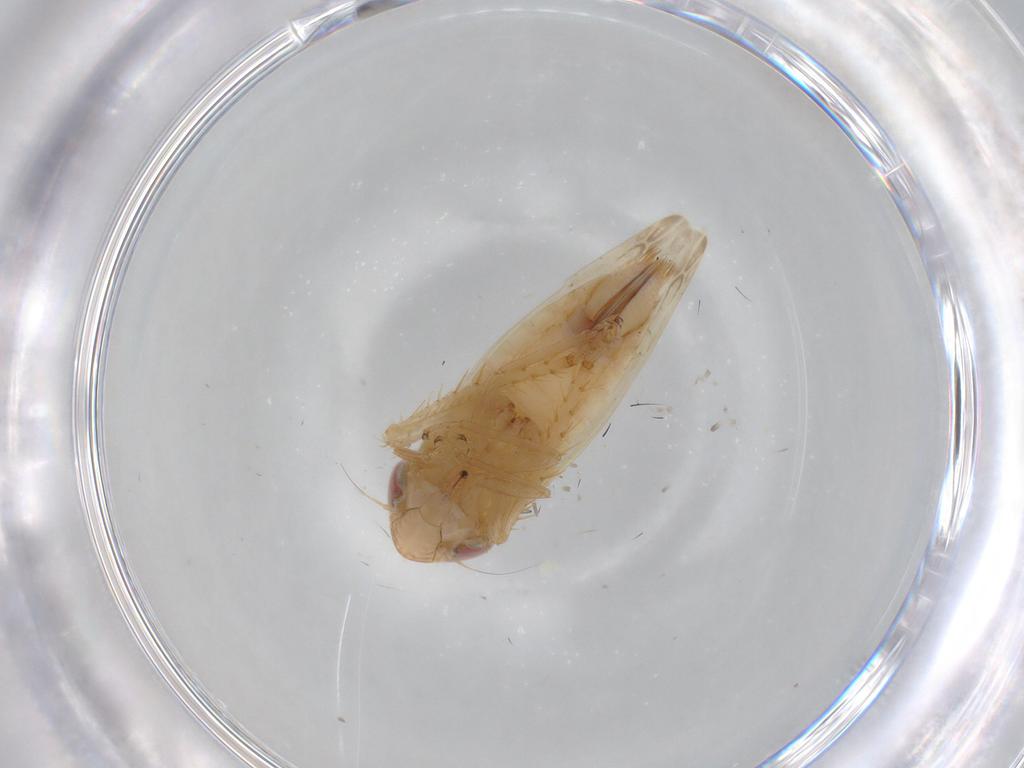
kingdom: Animalia
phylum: Arthropoda
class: Insecta
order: Hemiptera
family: Cicadellidae
